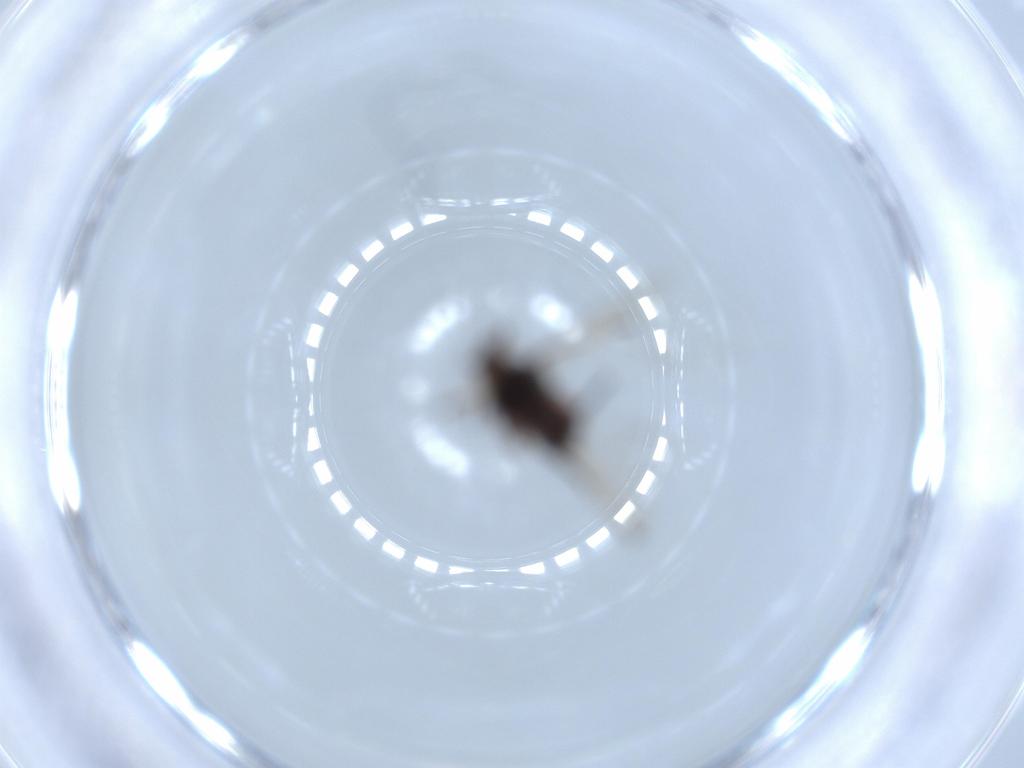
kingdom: Animalia
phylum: Arthropoda
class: Insecta
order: Hemiptera
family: Aphididae
